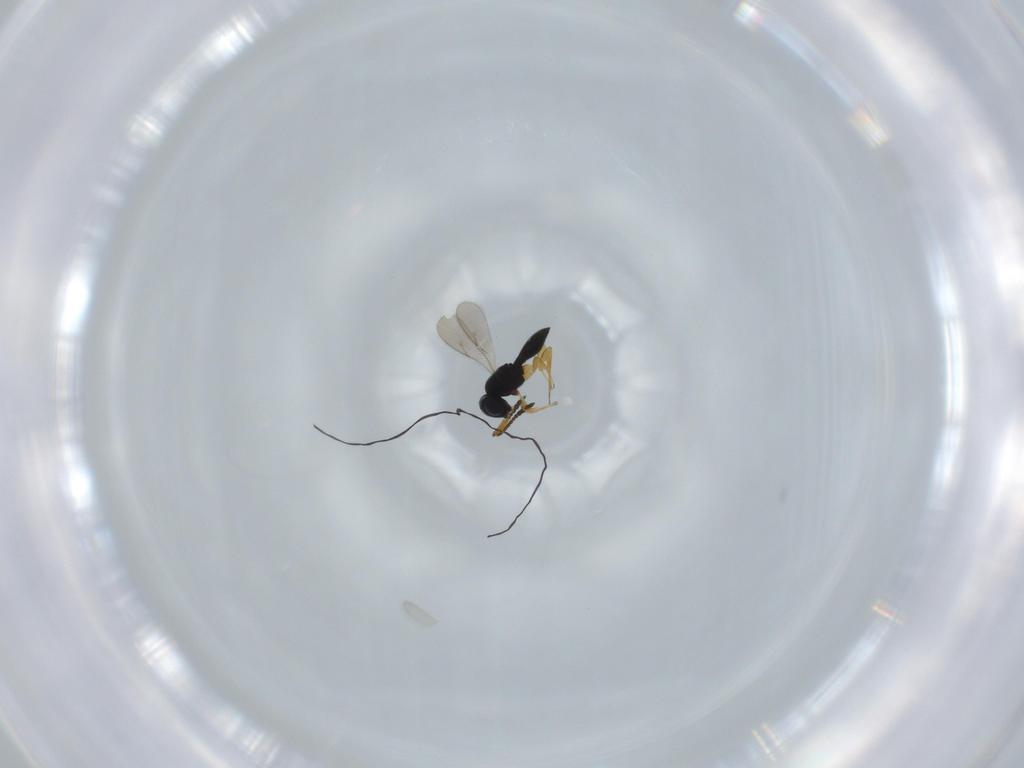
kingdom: Animalia
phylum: Arthropoda
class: Insecta
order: Hymenoptera
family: Scelionidae
